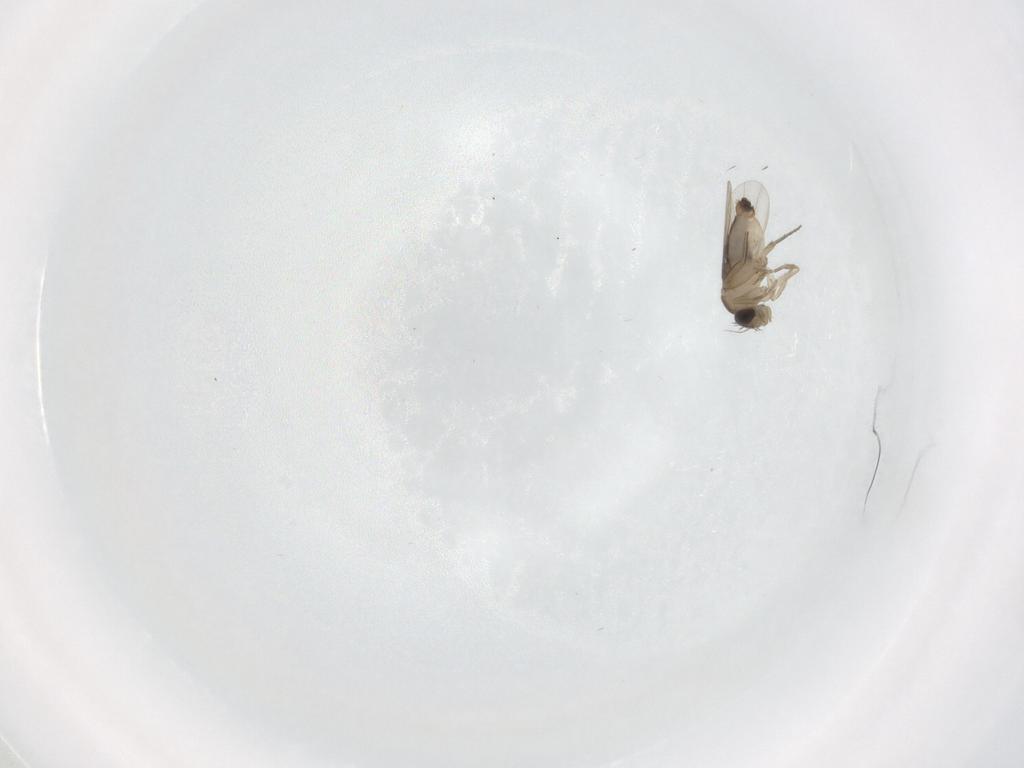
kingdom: Animalia
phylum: Arthropoda
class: Insecta
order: Diptera
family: Phoridae
